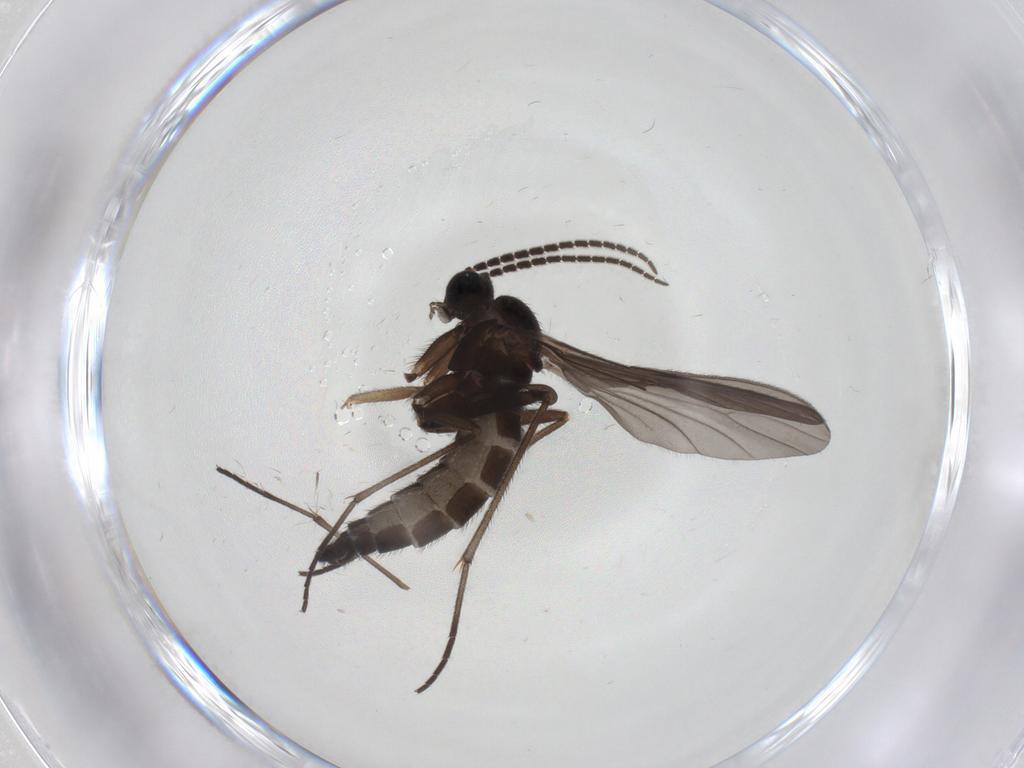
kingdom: Animalia
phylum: Arthropoda
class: Insecta
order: Diptera
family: Sciaridae
